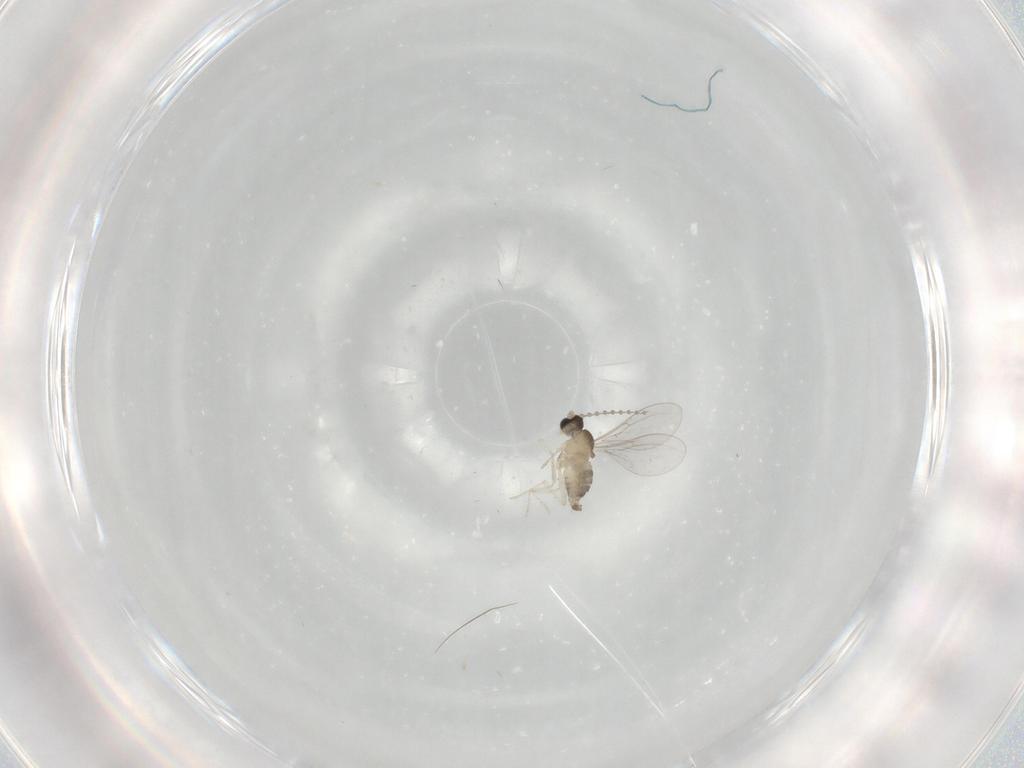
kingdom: Animalia
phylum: Arthropoda
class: Insecta
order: Diptera
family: Cecidomyiidae
